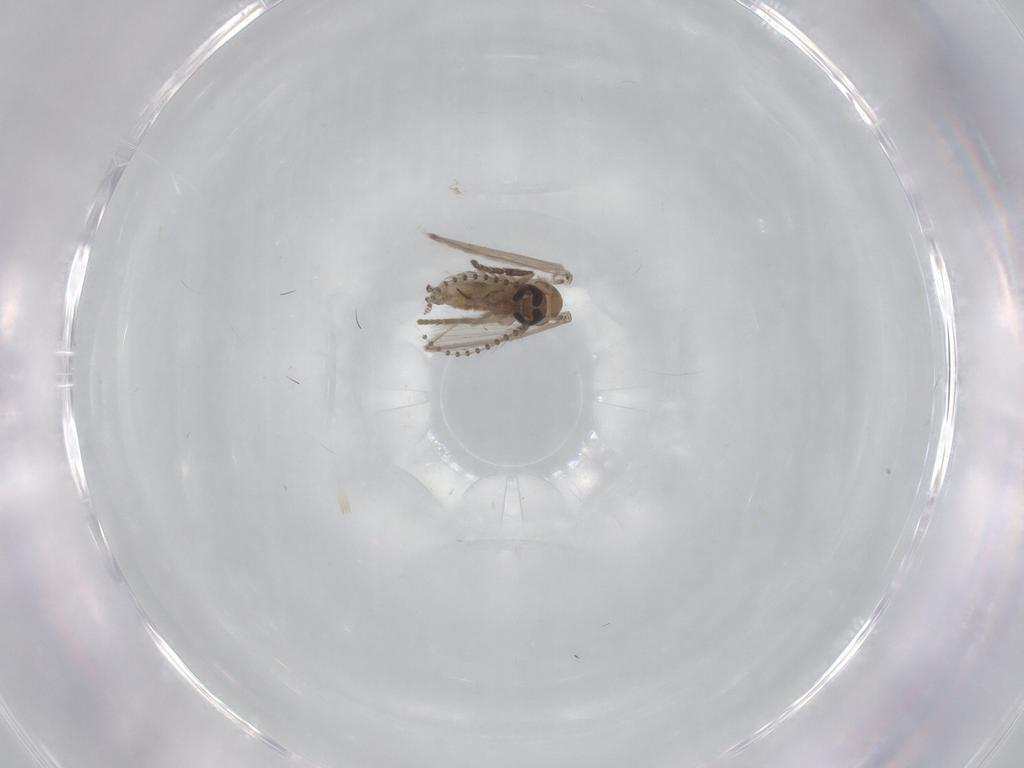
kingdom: Animalia
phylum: Arthropoda
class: Insecta
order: Diptera
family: Psychodidae
